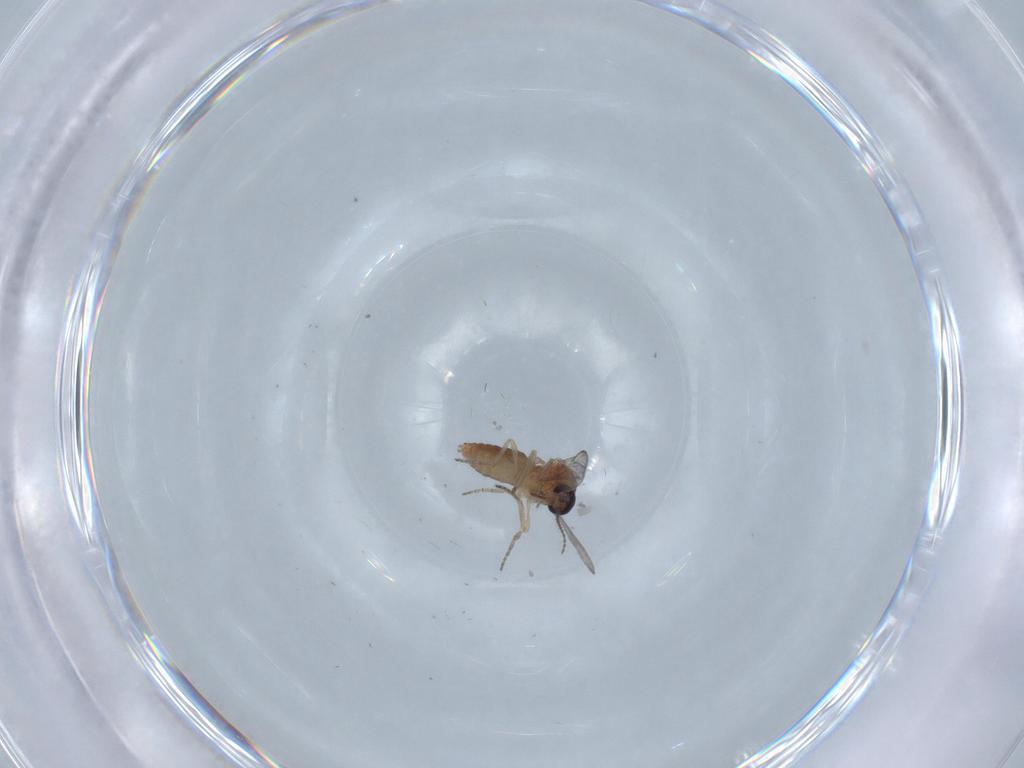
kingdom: Animalia
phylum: Arthropoda
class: Insecta
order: Diptera
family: Ceratopogonidae
